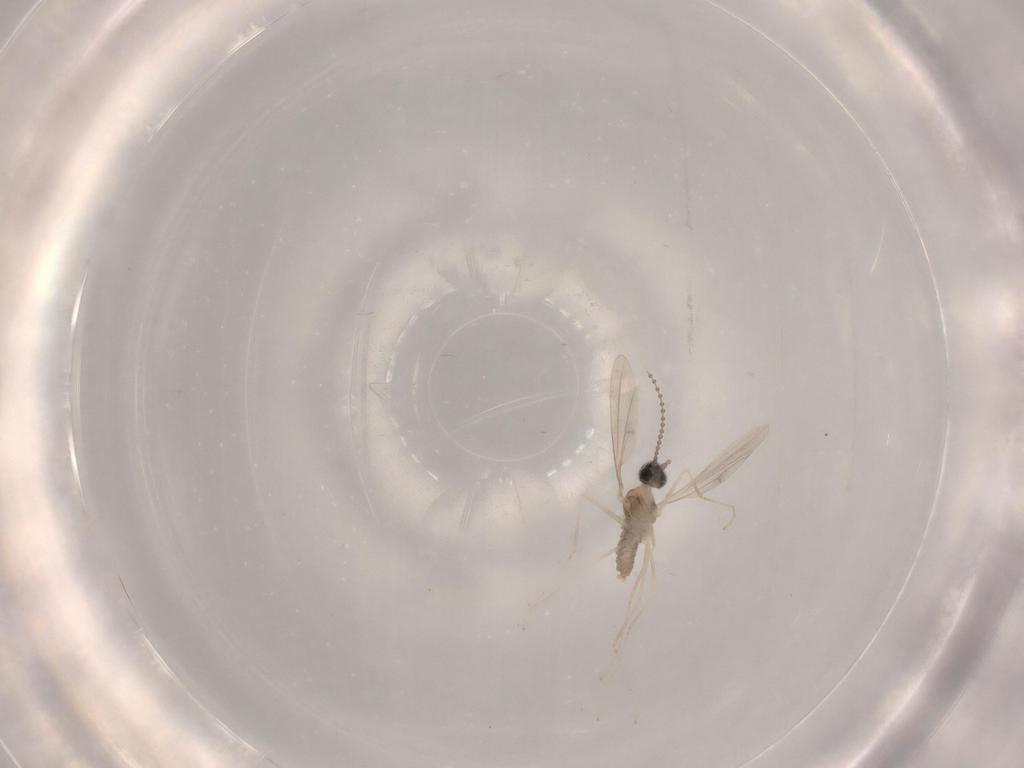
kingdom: Animalia
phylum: Arthropoda
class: Insecta
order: Diptera
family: Cecidomyiidae
